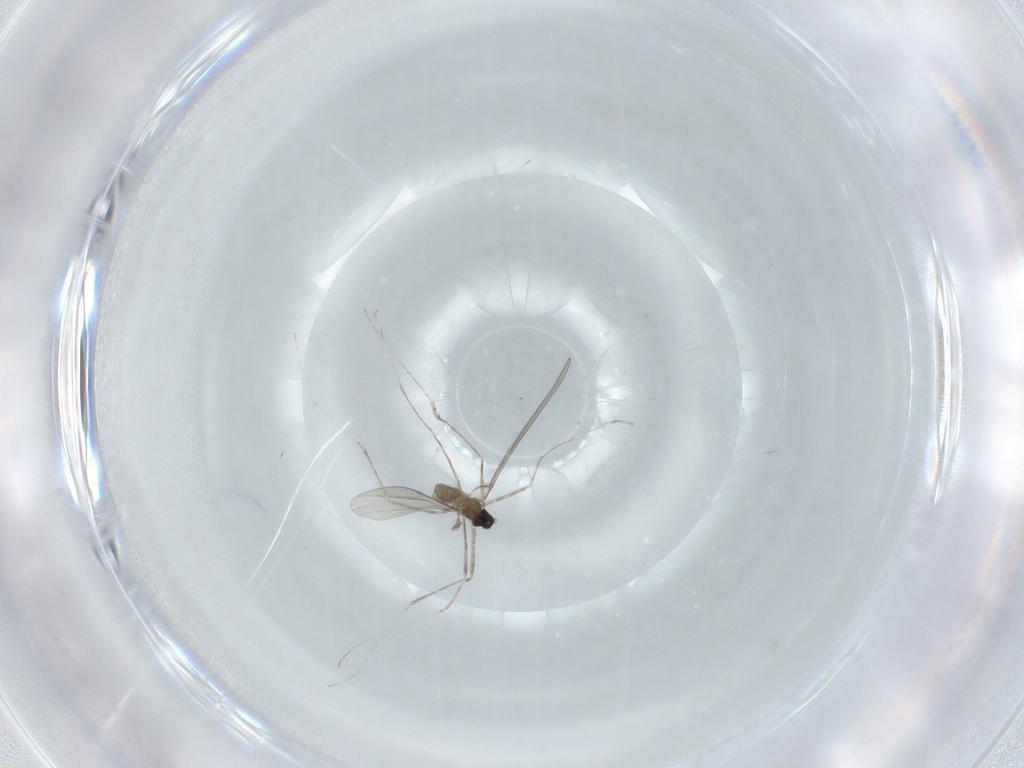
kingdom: Animalia
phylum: Arthropoda
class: Insecta
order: Diptera
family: Cecidomyiidae
